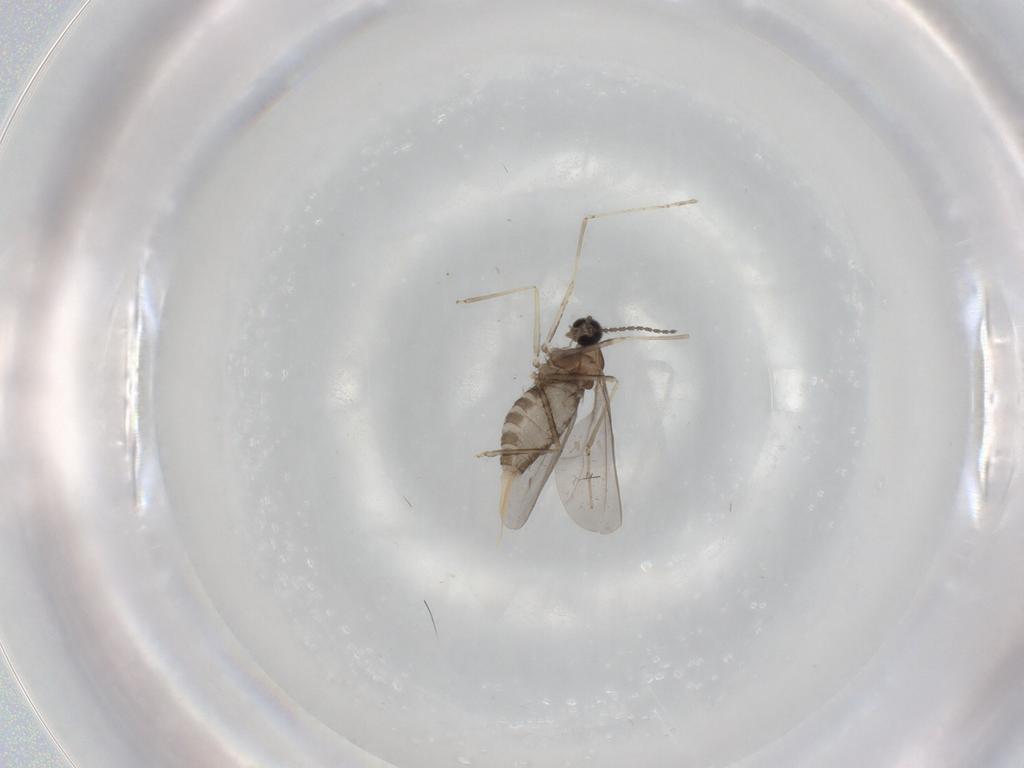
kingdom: Animalia
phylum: Arthropoda
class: Insecta
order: Diptera
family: Cecidomyiidae
